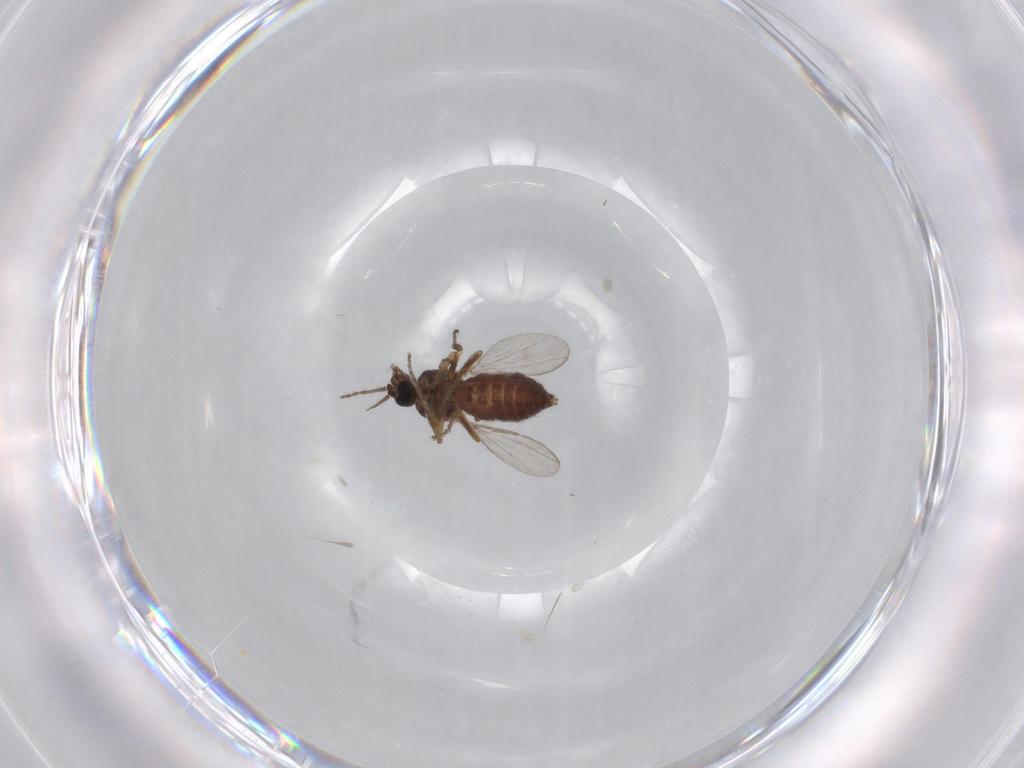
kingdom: Animalia
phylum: Arthropoda
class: Insecta
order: Diptera
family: Ceratopogonidae
